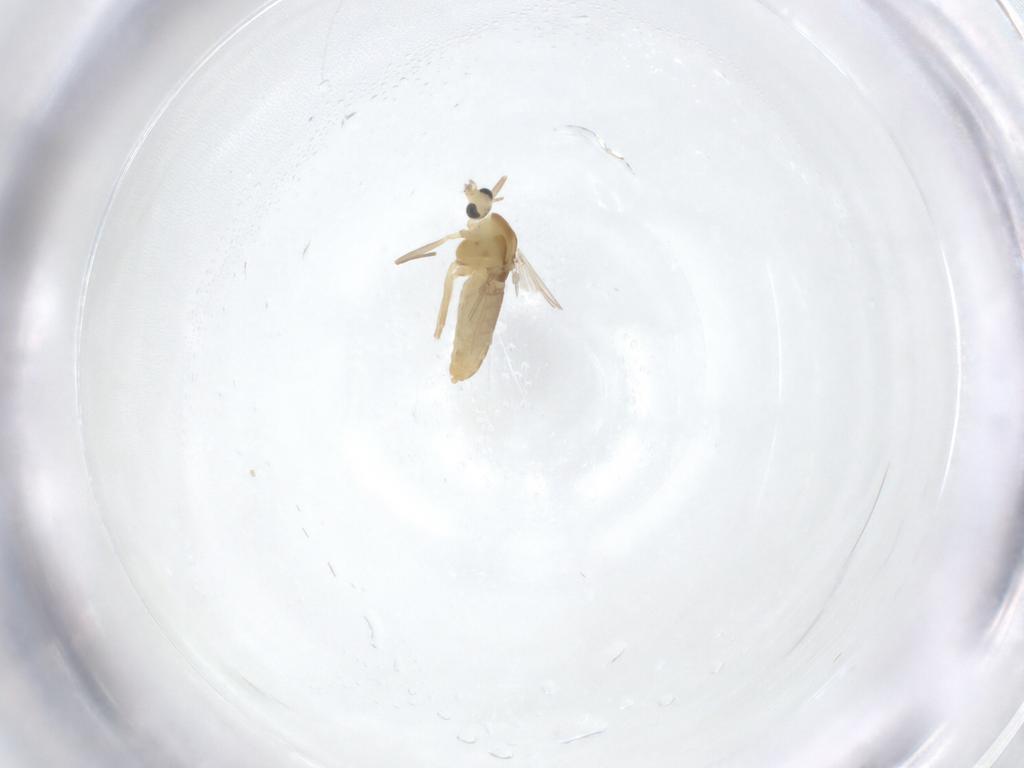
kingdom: Animalia
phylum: Arthropoda
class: Insecta
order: Diptera
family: Chironomidae
